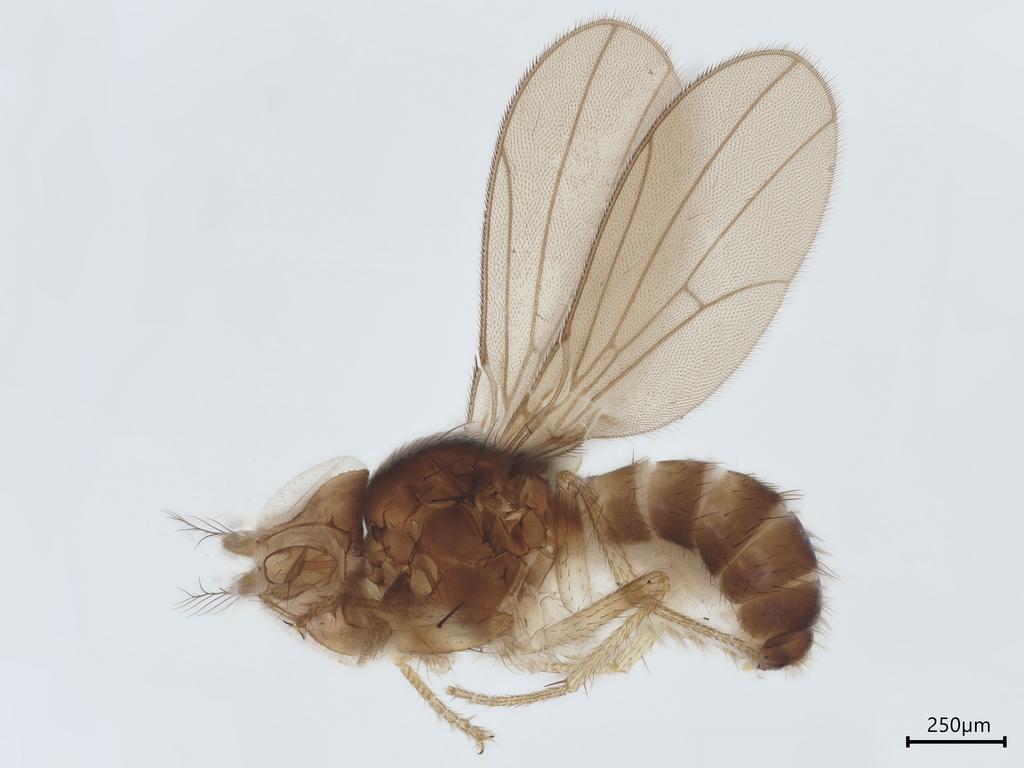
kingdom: Animalia
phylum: Arthropoda
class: Insecta
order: Diptera
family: Drosophilidae
